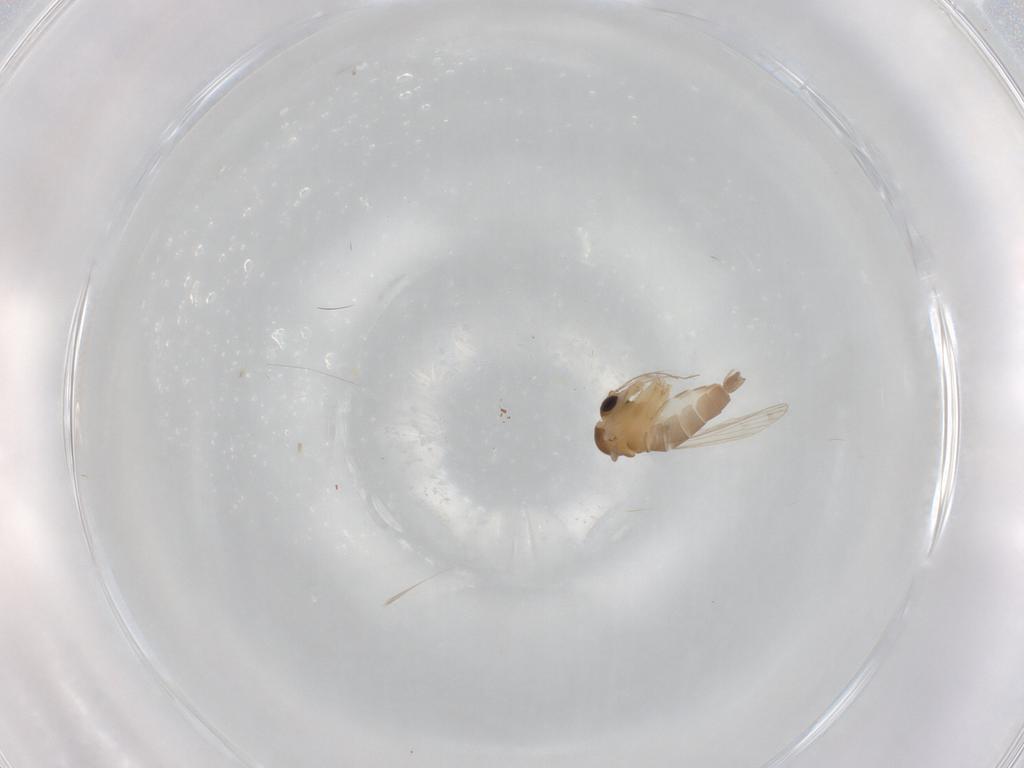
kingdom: Animalia
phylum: Arthropoda
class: Insecta
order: Diptera
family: Psychodidae
